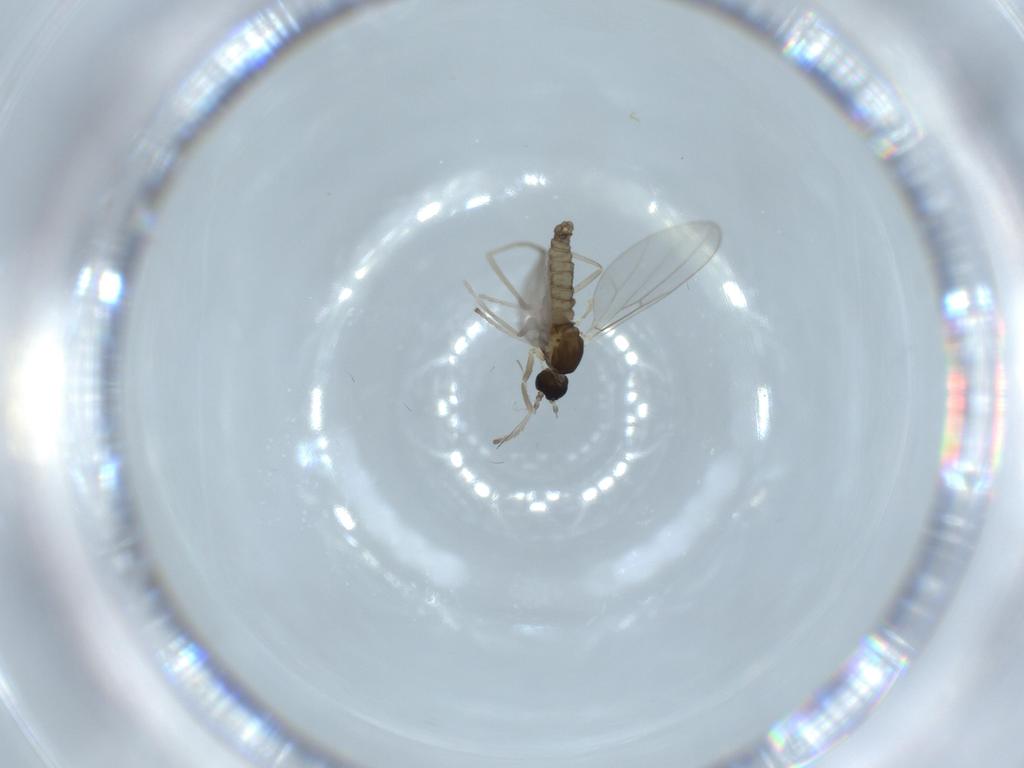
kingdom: Animalia
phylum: Arthropoda
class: Insecta
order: Diptera
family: Cecidomyiidae
